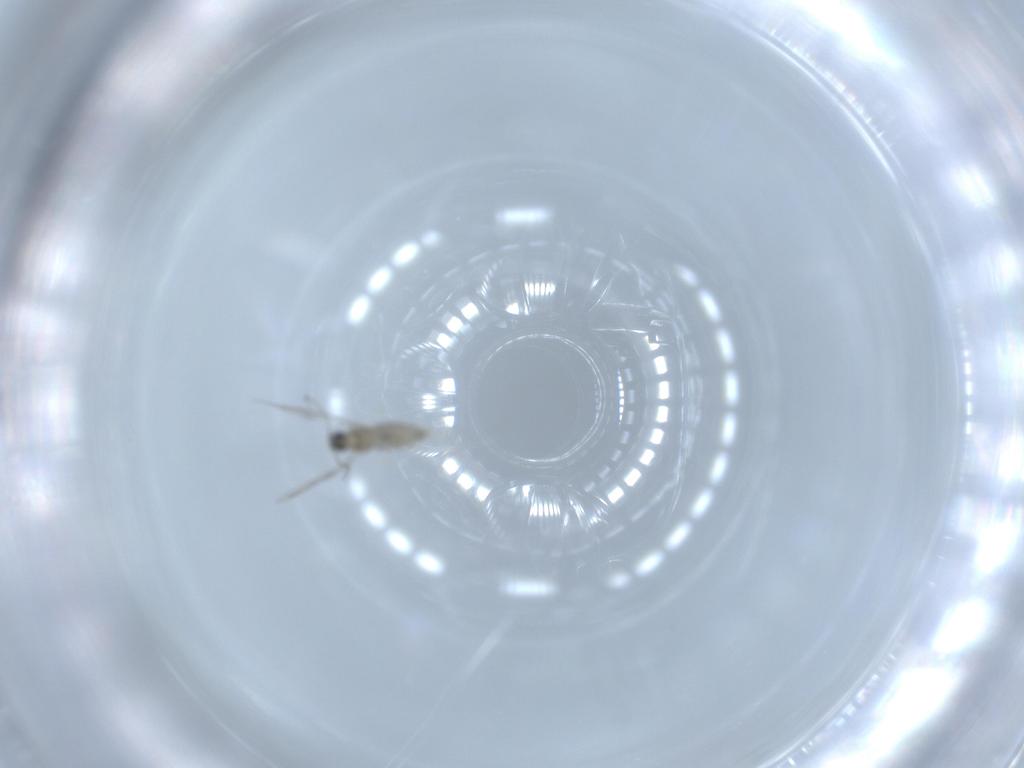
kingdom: Animalia
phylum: Arthropoda
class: Insecta
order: Diptera
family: Cecidomyiidae
